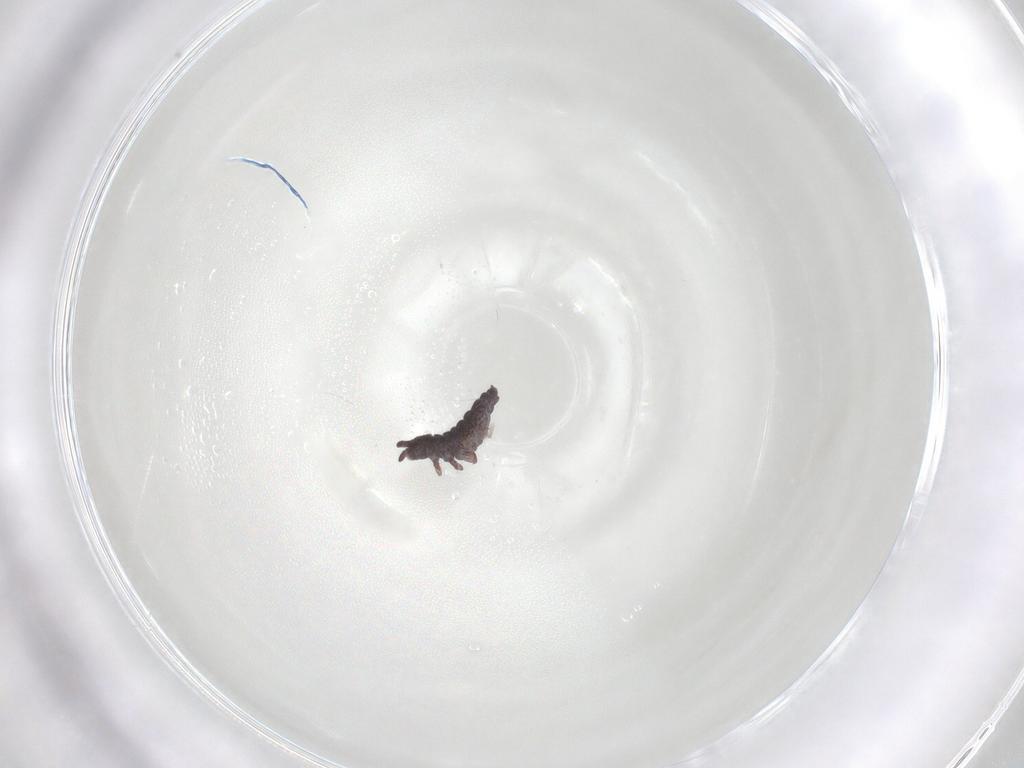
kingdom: Animalia
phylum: Arthropoda
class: Collembola
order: Poduromorpha
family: Hypogastruridae
